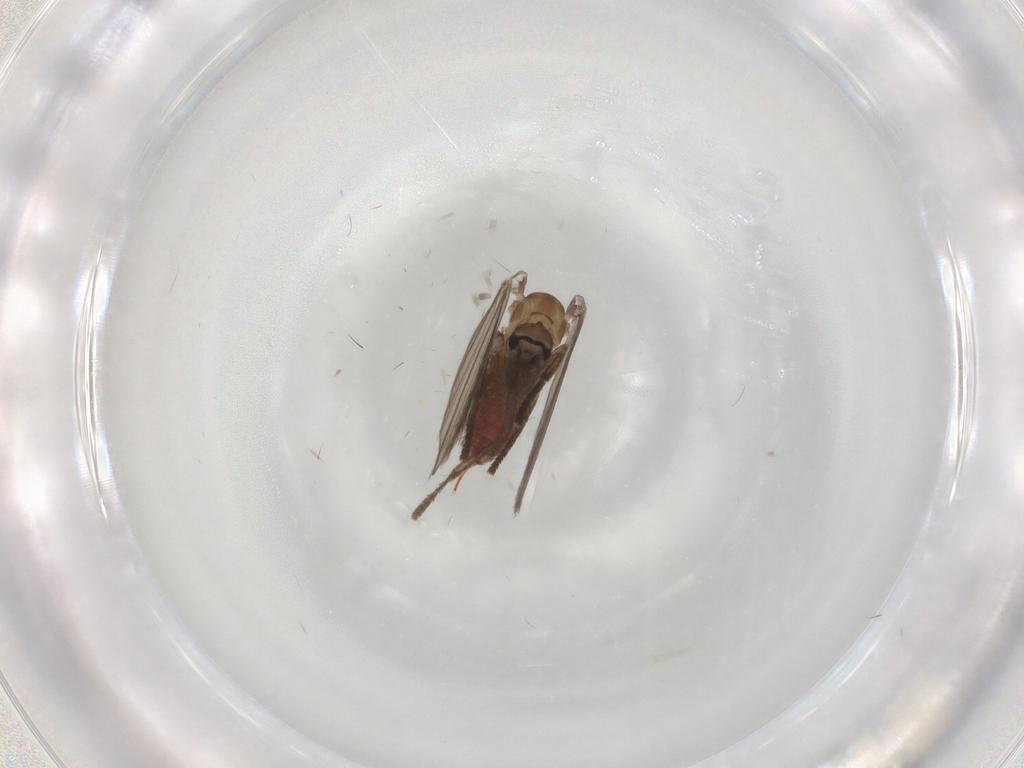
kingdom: Animalia
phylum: Arthropoda
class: Insecta
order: Diptera
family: Psychodidae
